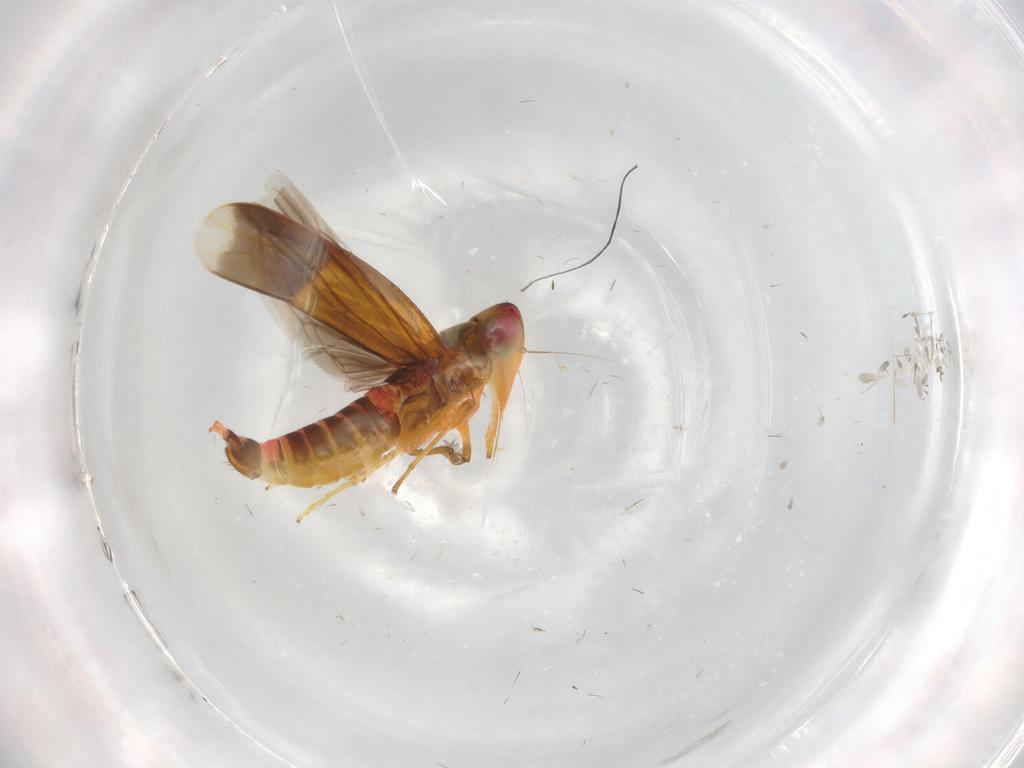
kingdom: Animalia
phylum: Arthropoda
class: Insecta
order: Hemiptera
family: Cicadellidae
